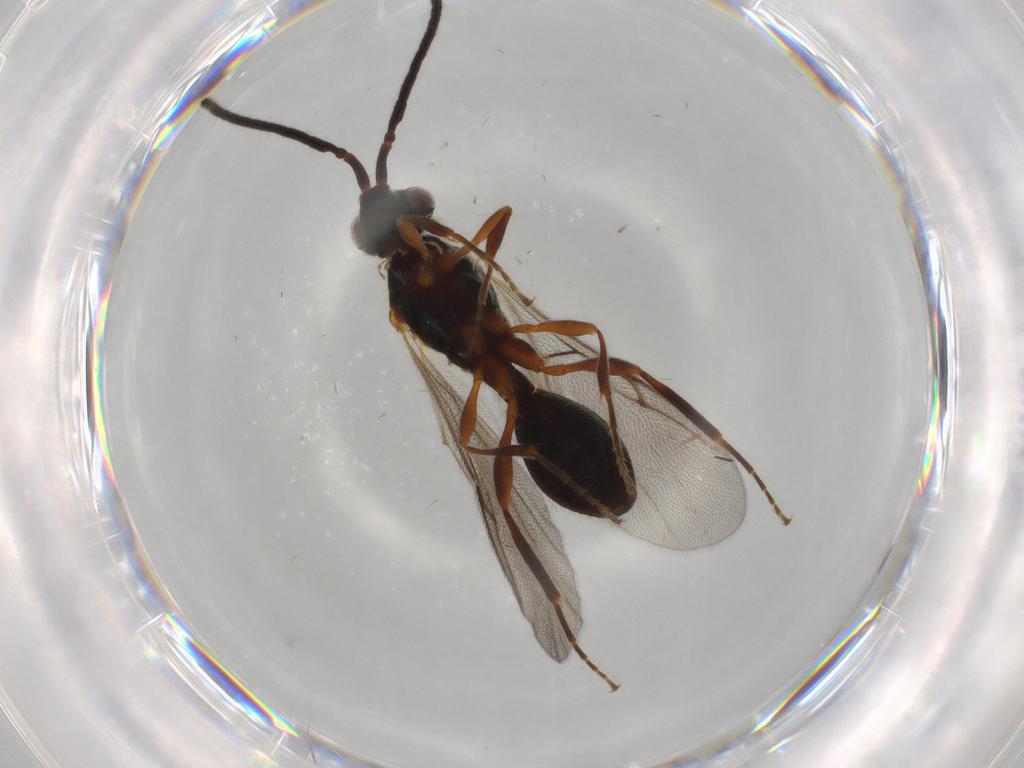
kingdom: Animalia
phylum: Arthropoda
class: Insecta
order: Hymenoptera
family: Diapriidae
